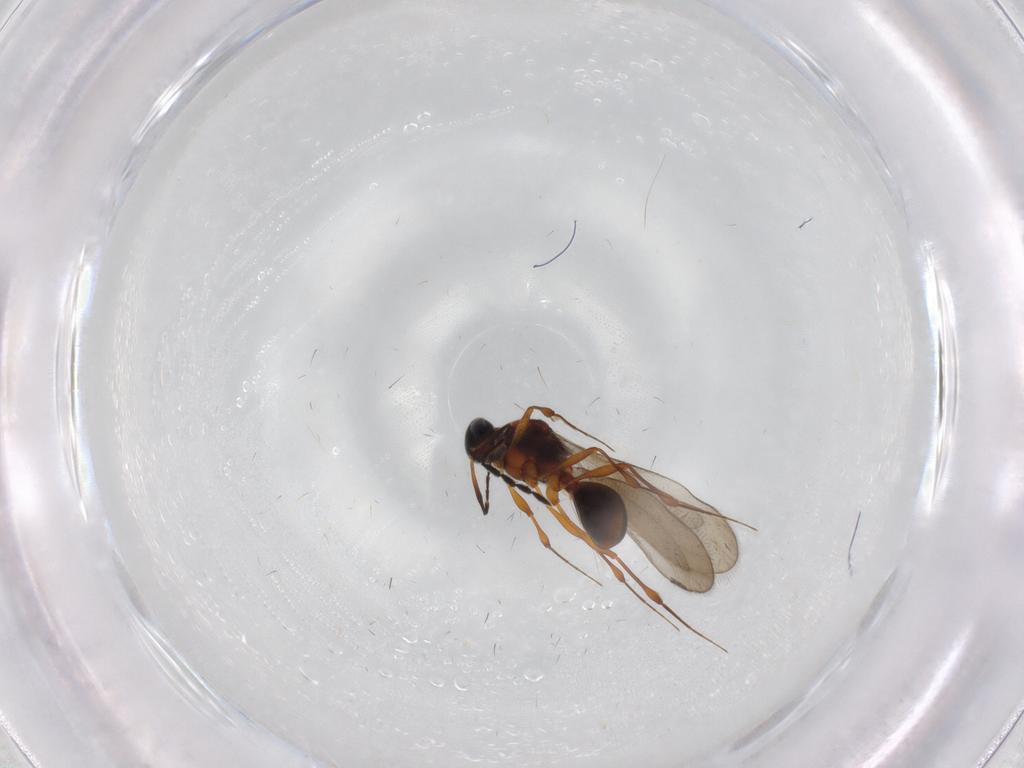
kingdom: Animalia
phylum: Arthropoda
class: Insecta
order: Hymenoptera
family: Platygastridae
